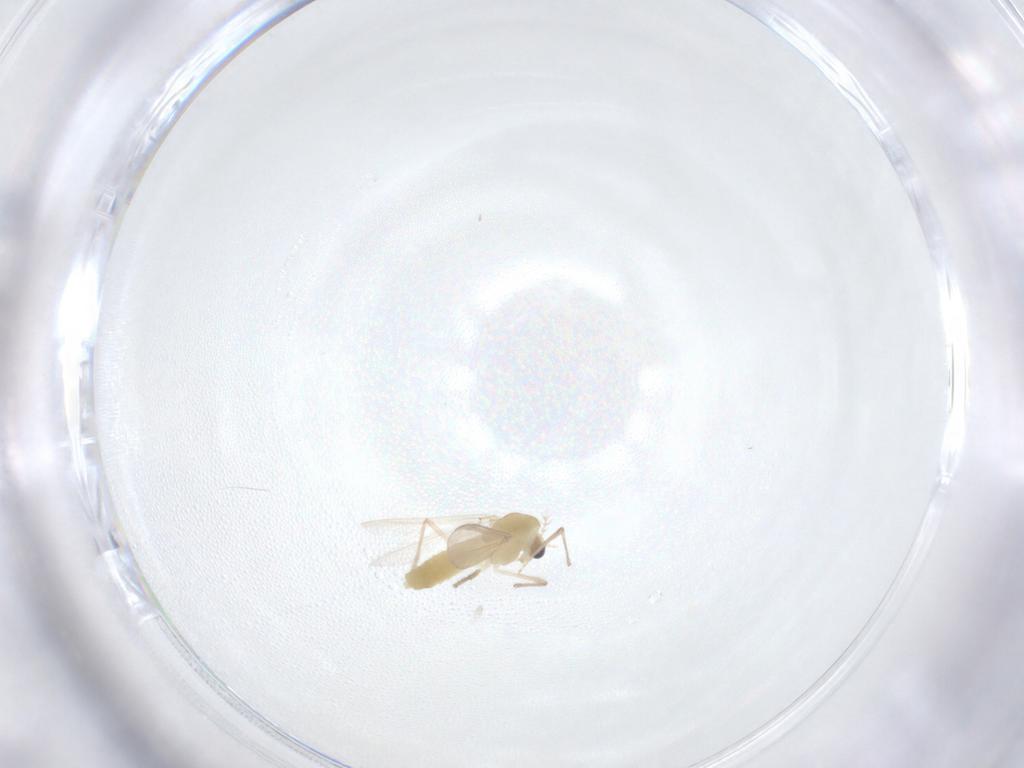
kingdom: Animalia
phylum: Arthropoda
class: Insecta
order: Diptera
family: Chironomidae
